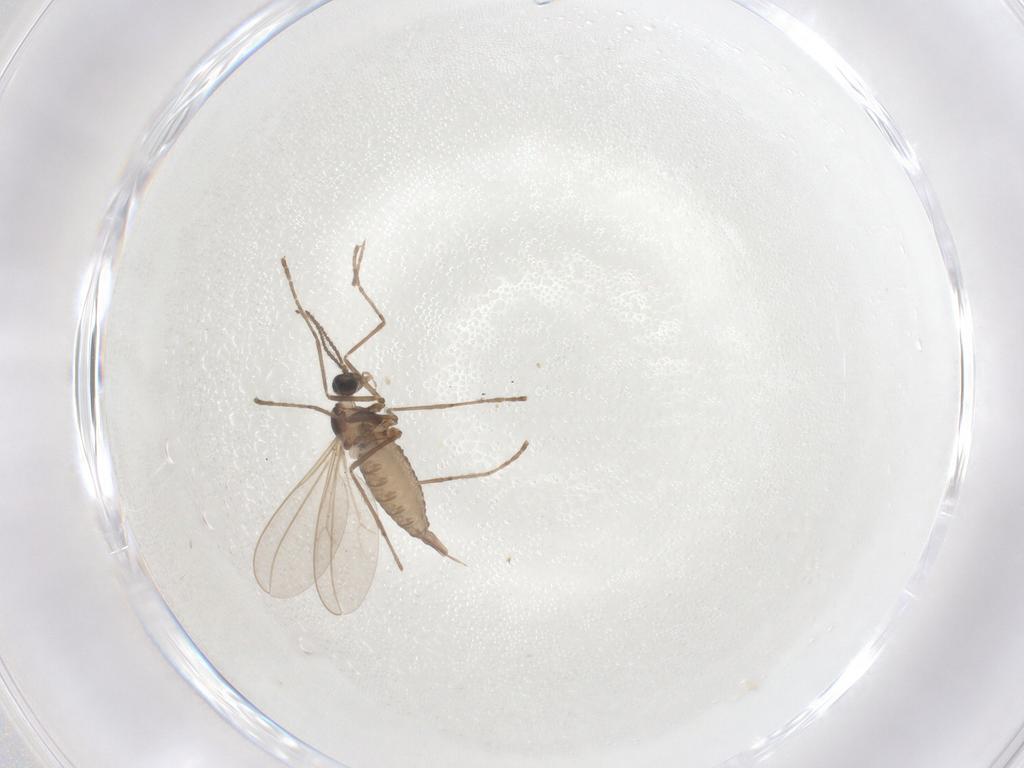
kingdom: Animalia
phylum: Arthropoda
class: Insecta
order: Diptera
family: Cecidomyiidae
